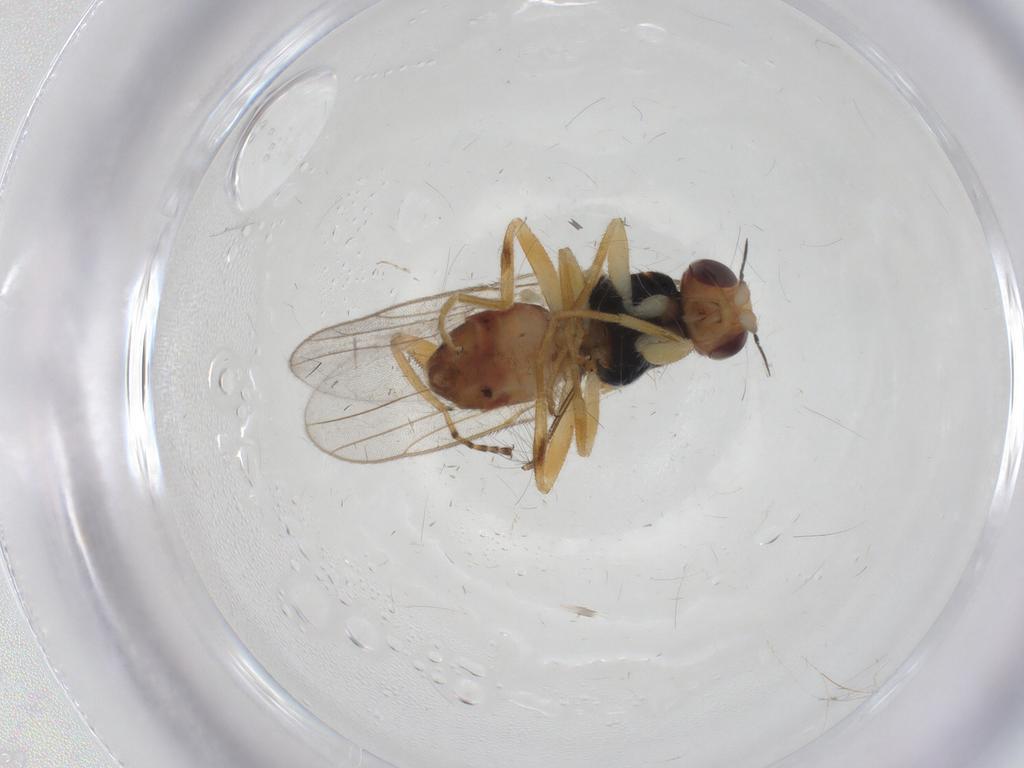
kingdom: Animalia
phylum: Arthropoda
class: Insecta
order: Diptera
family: Chloropidae
